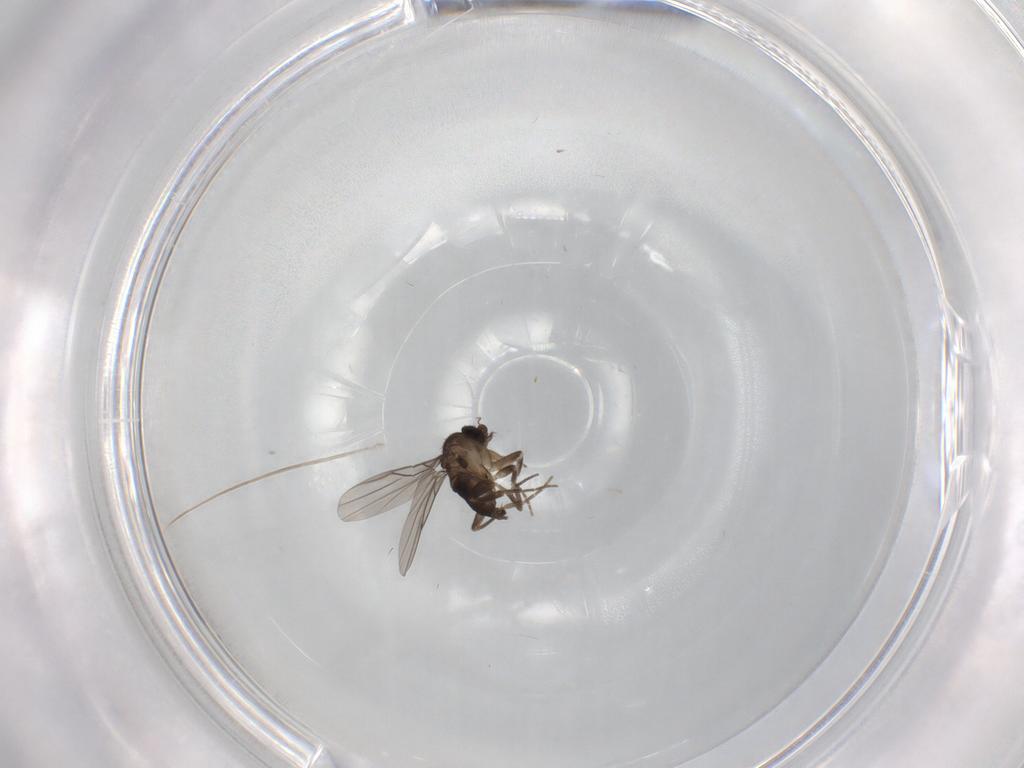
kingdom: Animalia
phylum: Arthropoda
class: Insecta
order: Diptera
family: Phoridae
